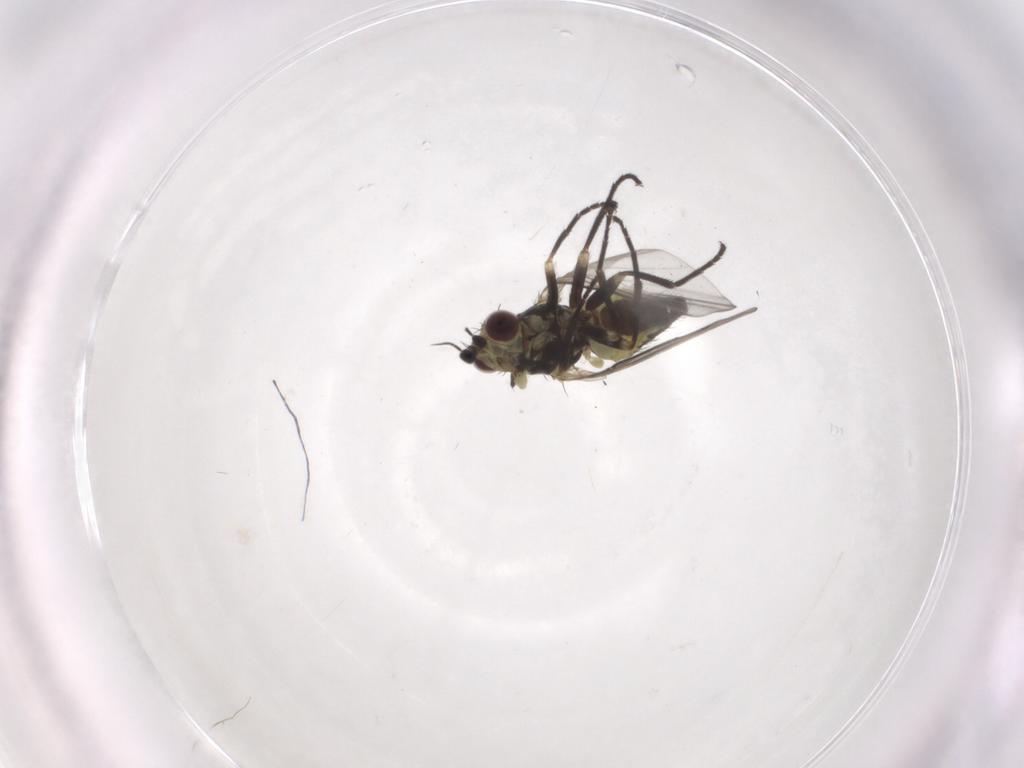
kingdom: Animalia
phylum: Arthropoda
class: Insecta
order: Diptera
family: Agromyzidae
